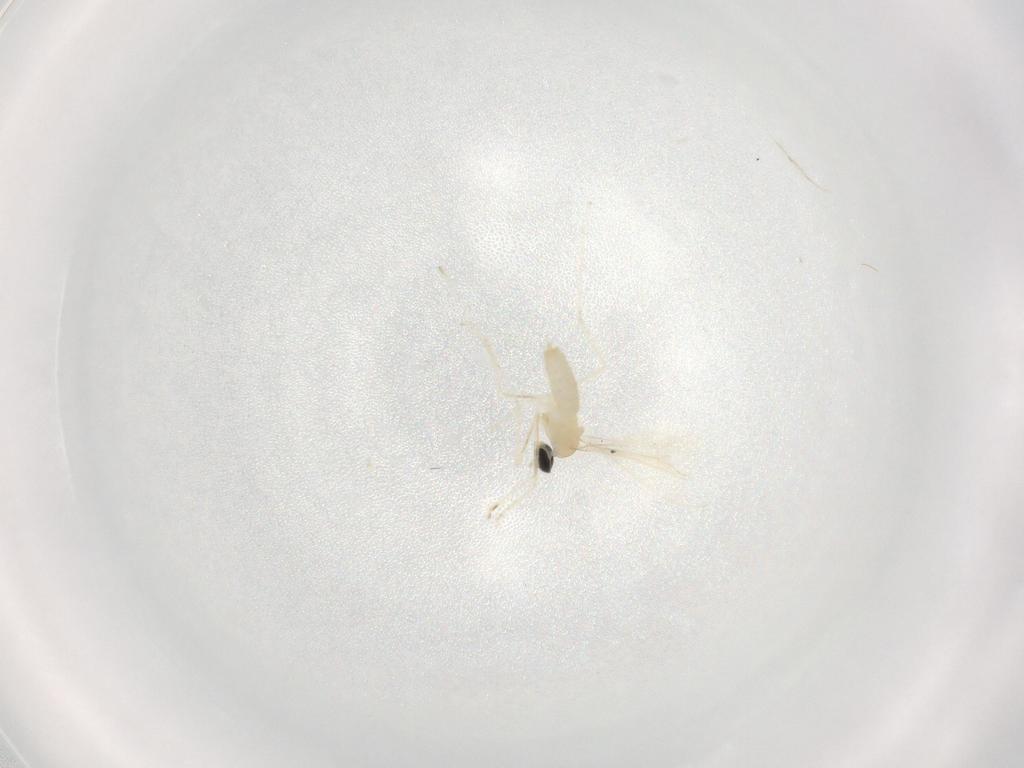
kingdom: Animalia
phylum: Arthropoda
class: Insecta
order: Diptera
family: Cecidomyiidae
